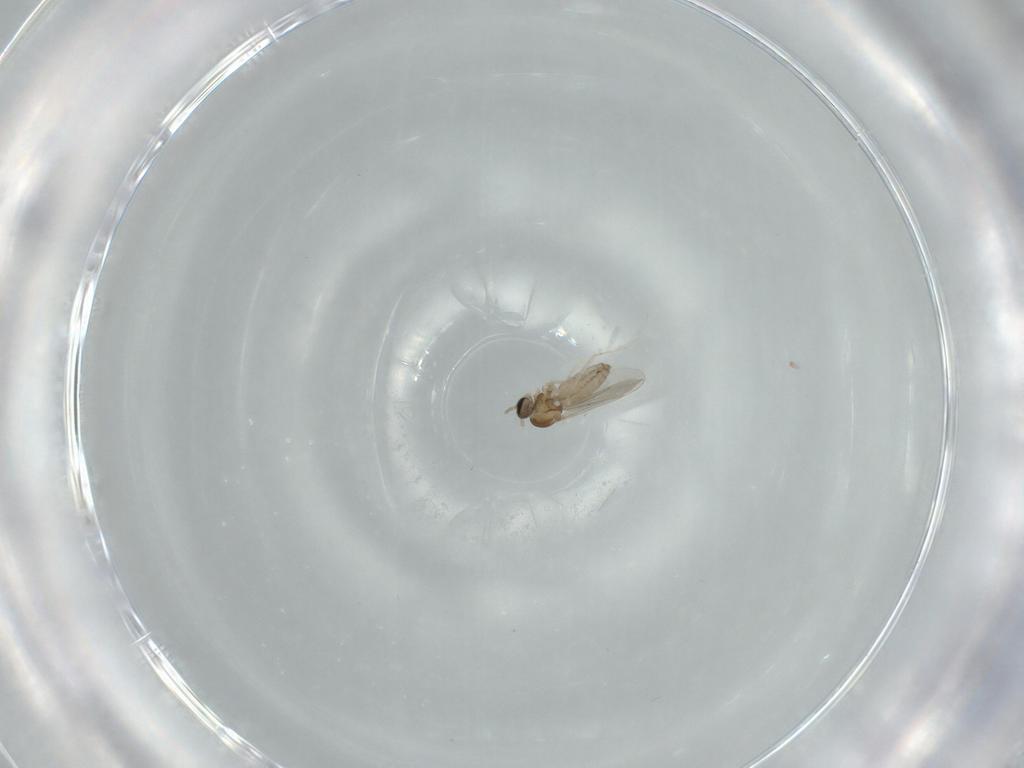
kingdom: Animalia
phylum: Arthropoda
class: Insecta
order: Diptera
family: Cecidomyiidae
